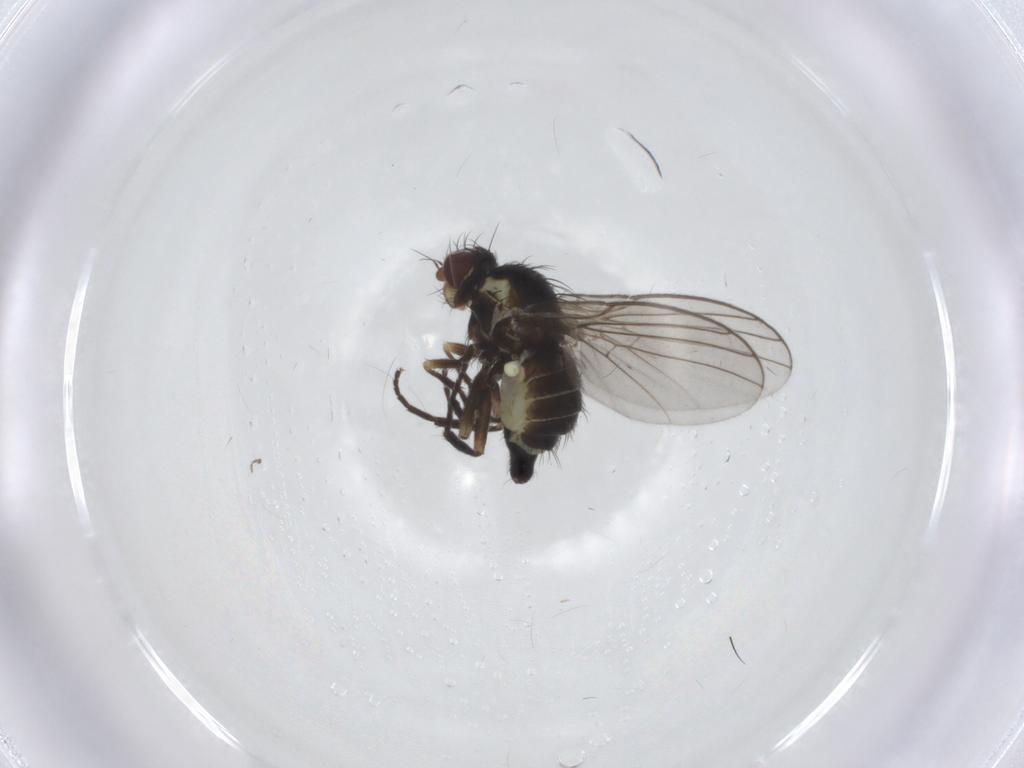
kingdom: Animalia
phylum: Arthropoda
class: Insecta
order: Diptera
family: Agromyzidae
